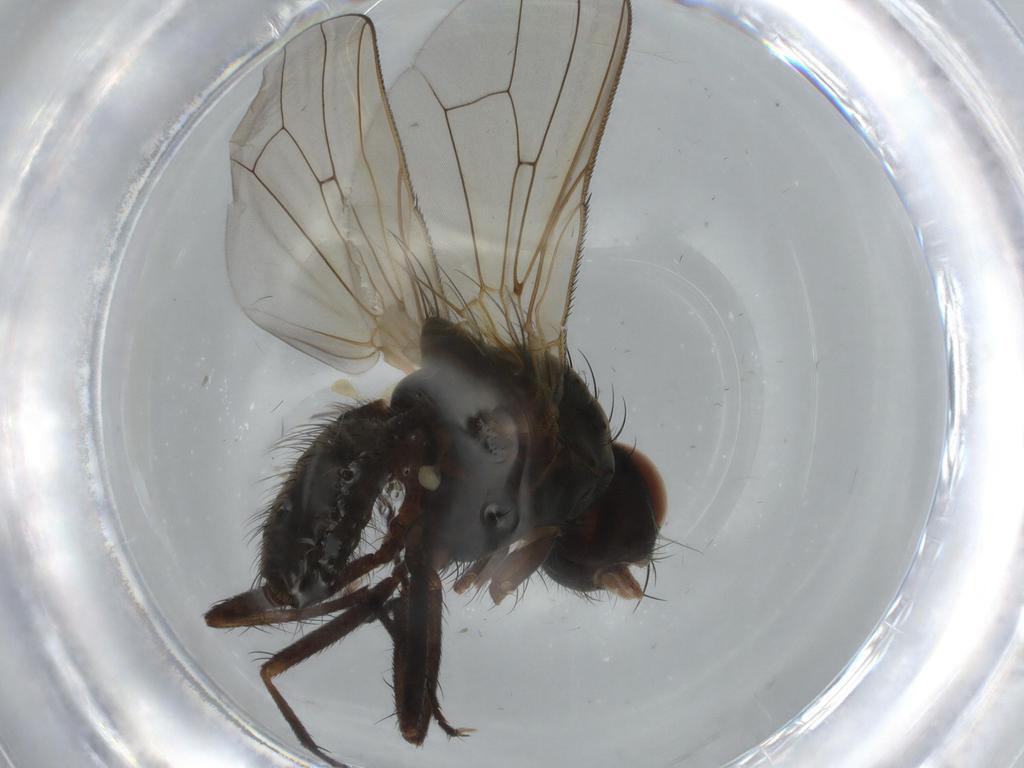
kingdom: Animalia
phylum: Arthropoda
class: Insecta
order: Diptera
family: Anthomyiidae
